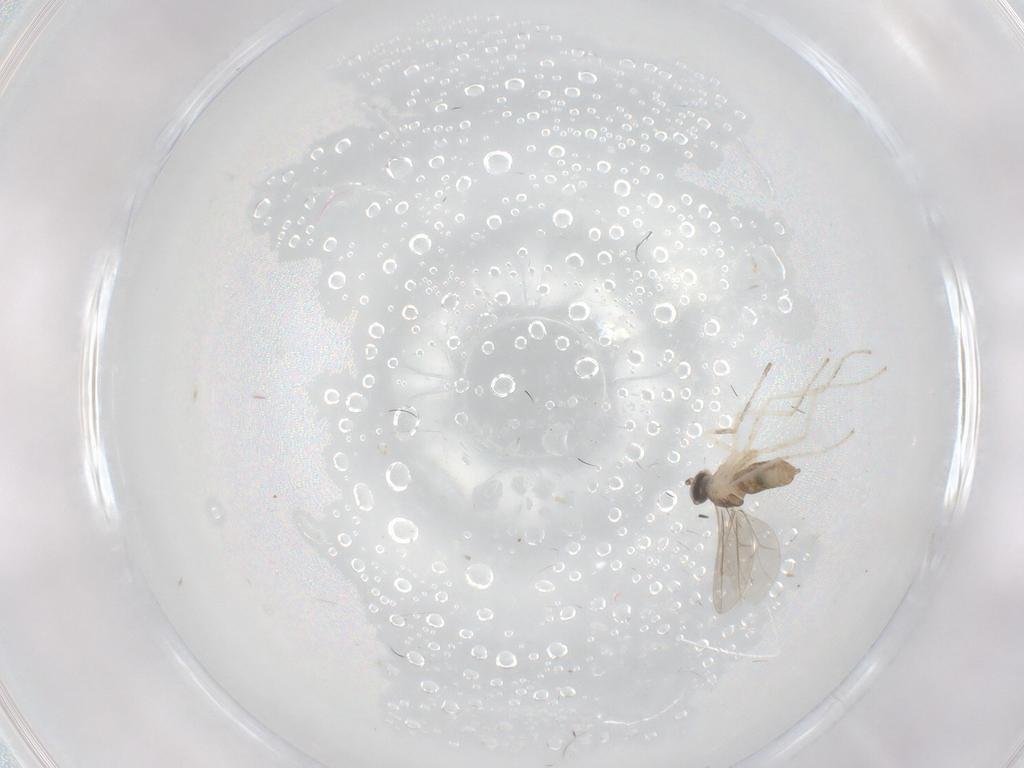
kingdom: Animalia
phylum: Arthropoda
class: Insecta
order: Diptera
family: Cecidomyiidae
